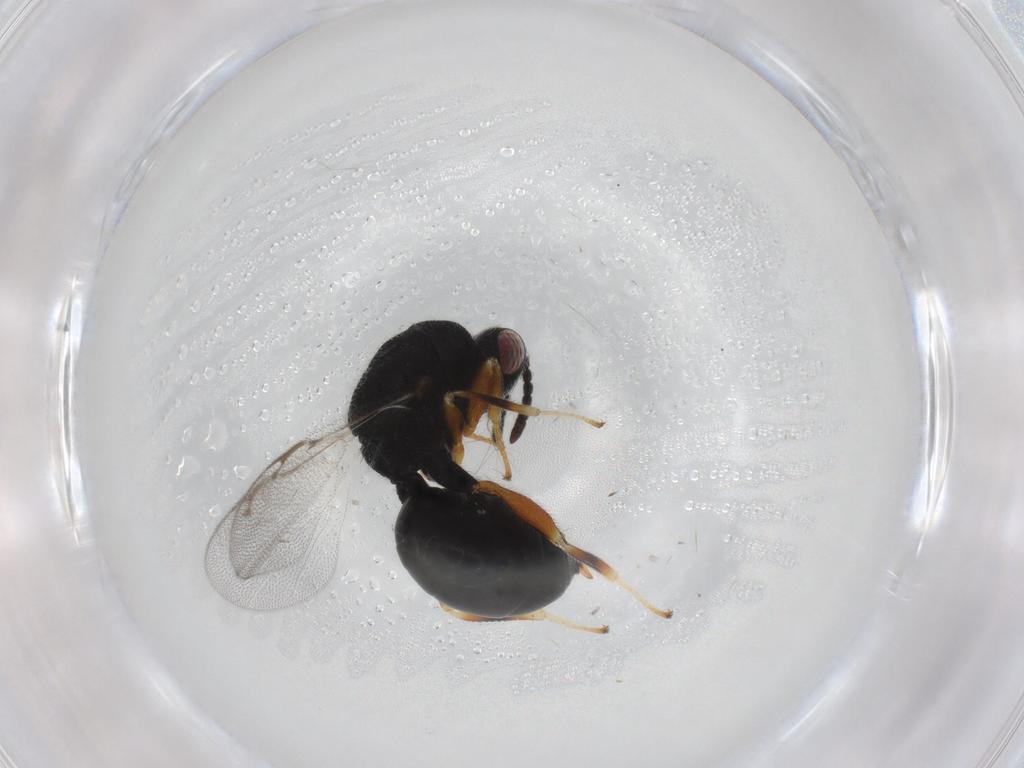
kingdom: Animalia
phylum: Arthropoda
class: Insecta
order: Hymenoptera
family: Eurytomidae
